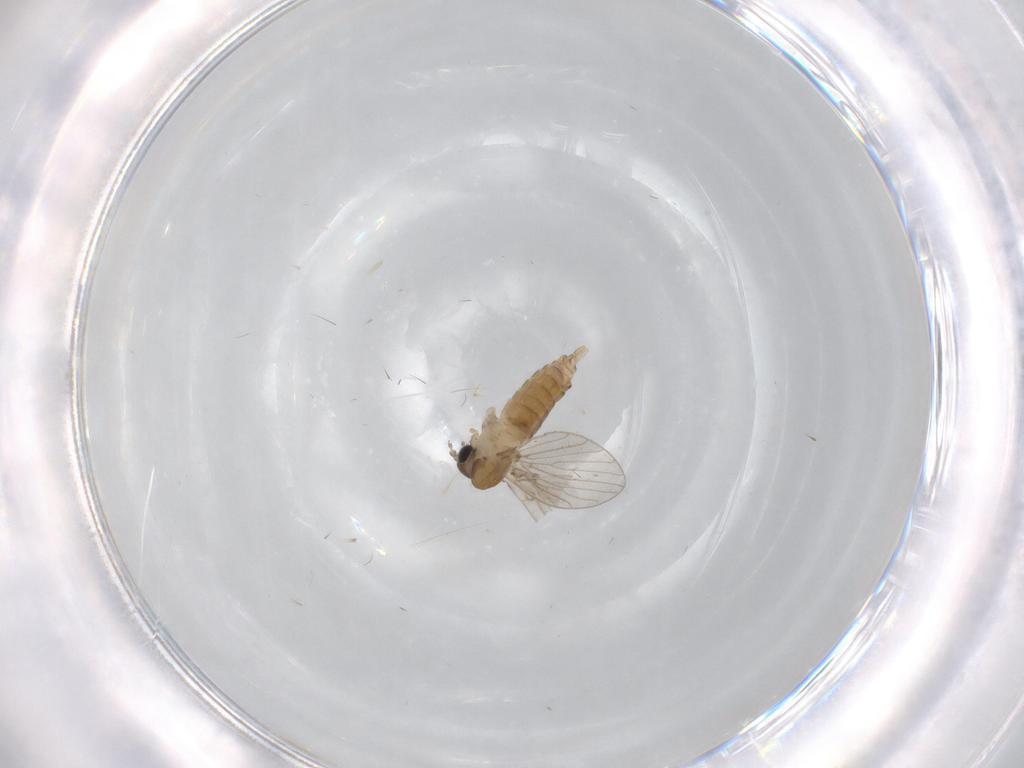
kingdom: Animalia
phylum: Arthropoda
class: Insecta
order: Diptera
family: Psychodidae
